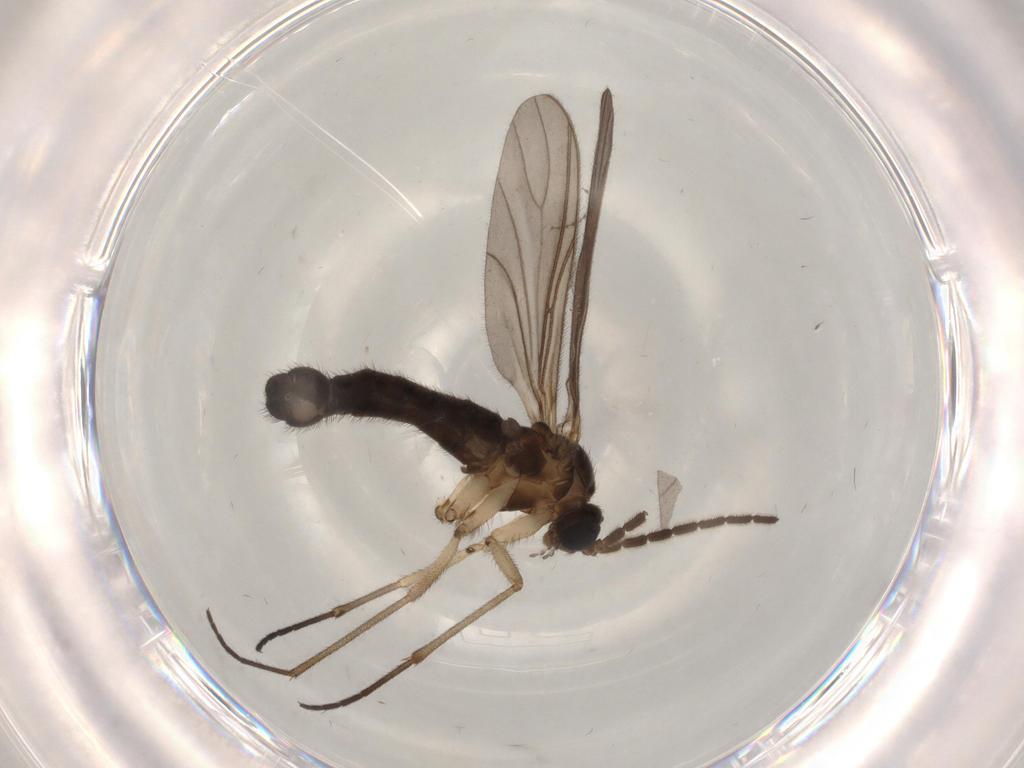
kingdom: Animalia
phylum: Arthropoda
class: Insecta
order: Diptera
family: Sciaridae
